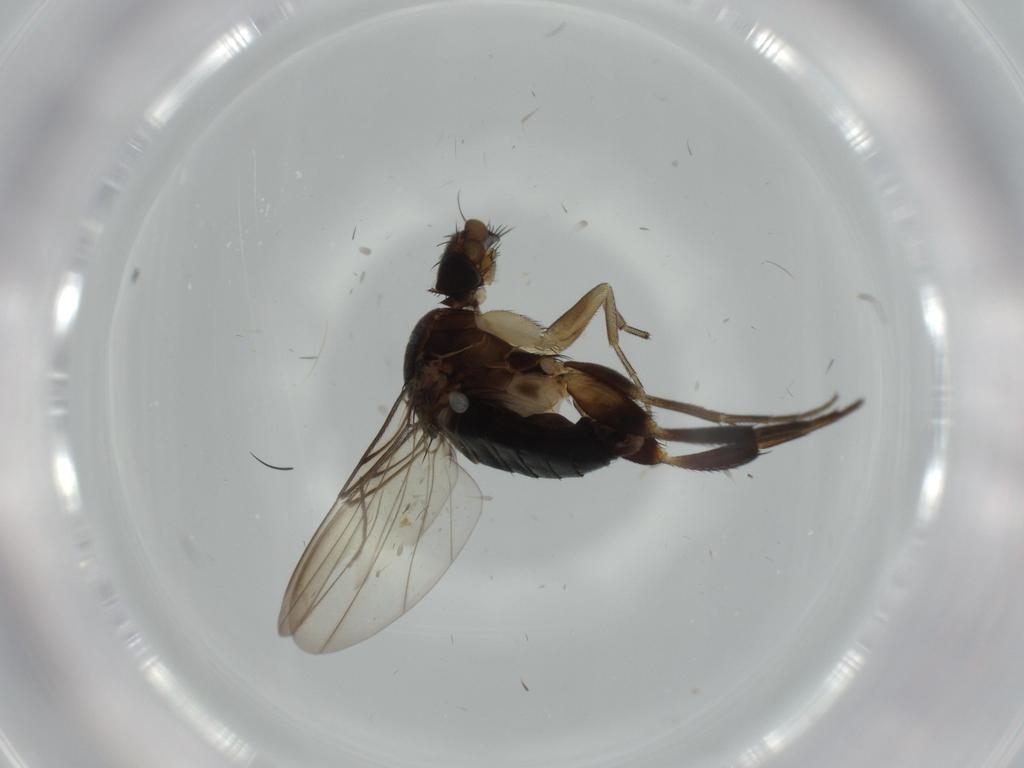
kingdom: Animalia
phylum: Arthropoda
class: Insecta
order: Diptera
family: Phoridae
